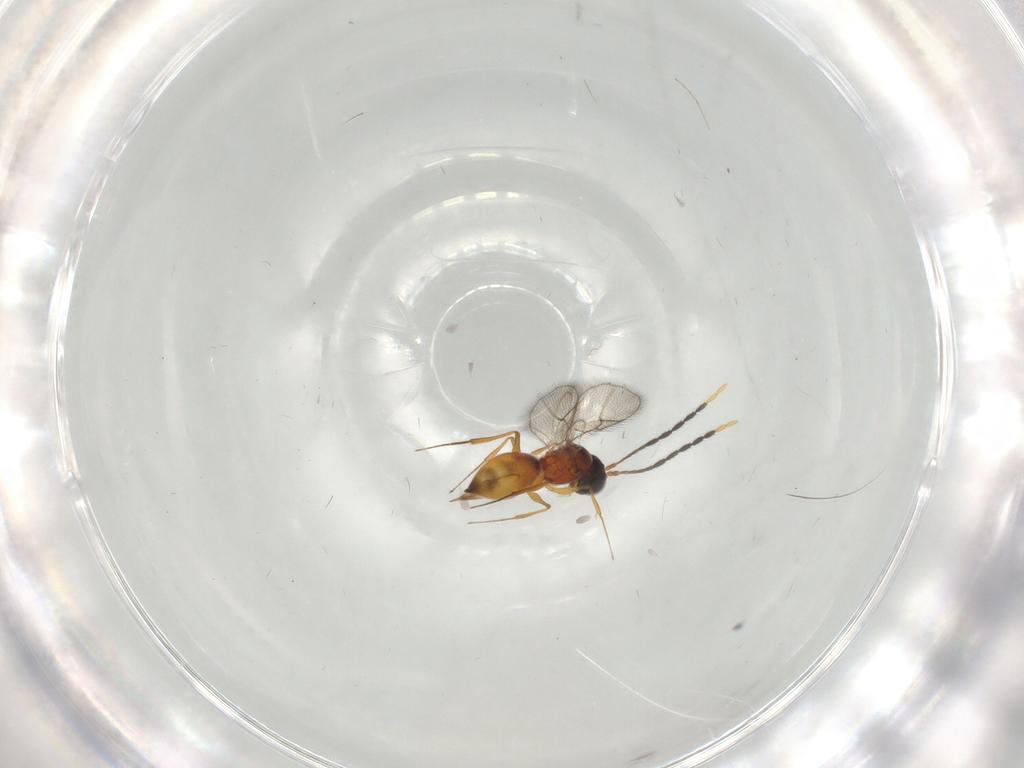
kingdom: Animalia
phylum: Arthropoda
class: Insecta
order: Hymenoptera
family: Figitidae
